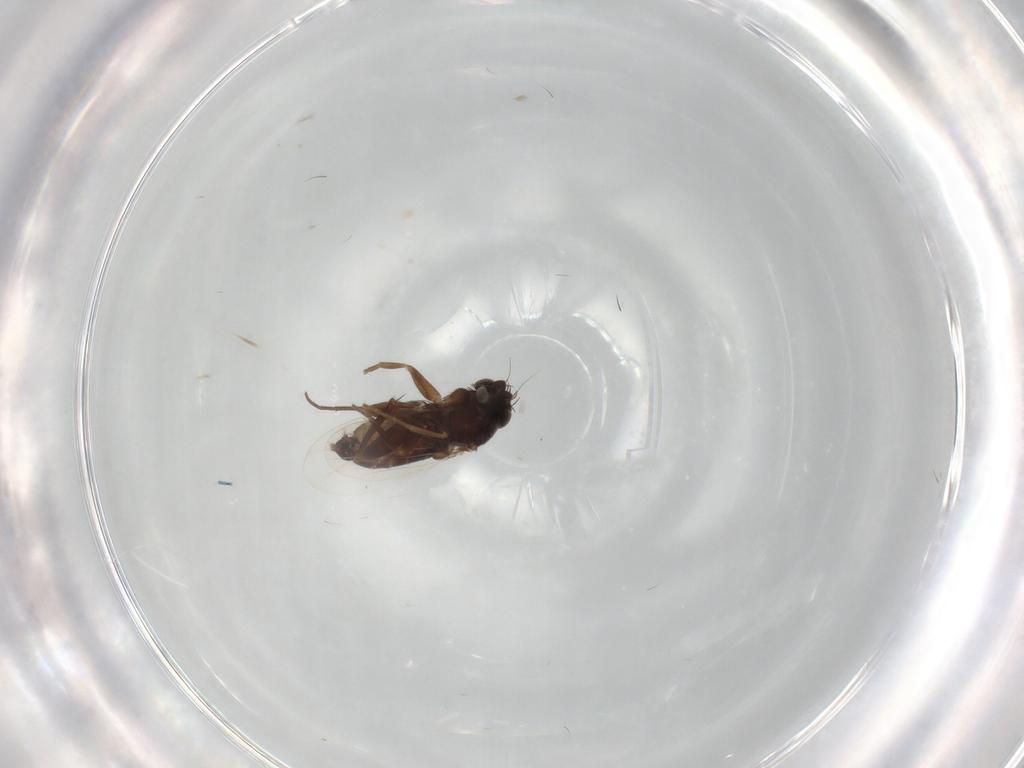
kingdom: Animalia
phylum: Arthropoda
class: Insecta
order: Diptera
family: Phoridae
